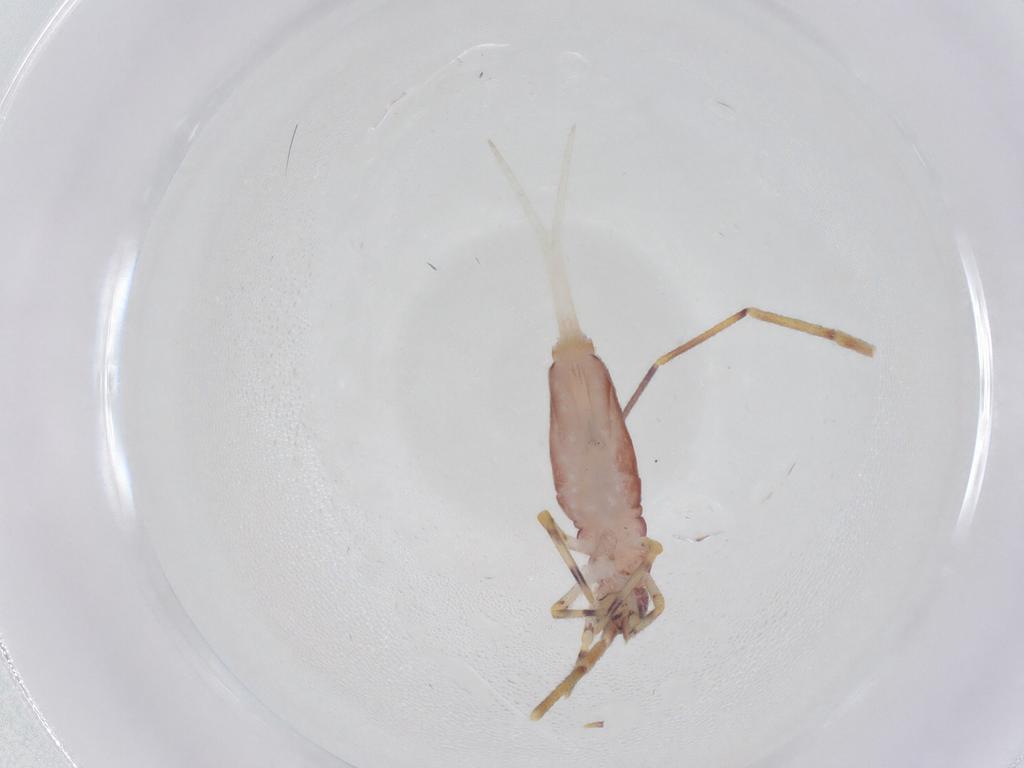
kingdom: Animalia
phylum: Arthropoda
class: Collembola
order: Entomobryomorpha
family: Entomobryidae
